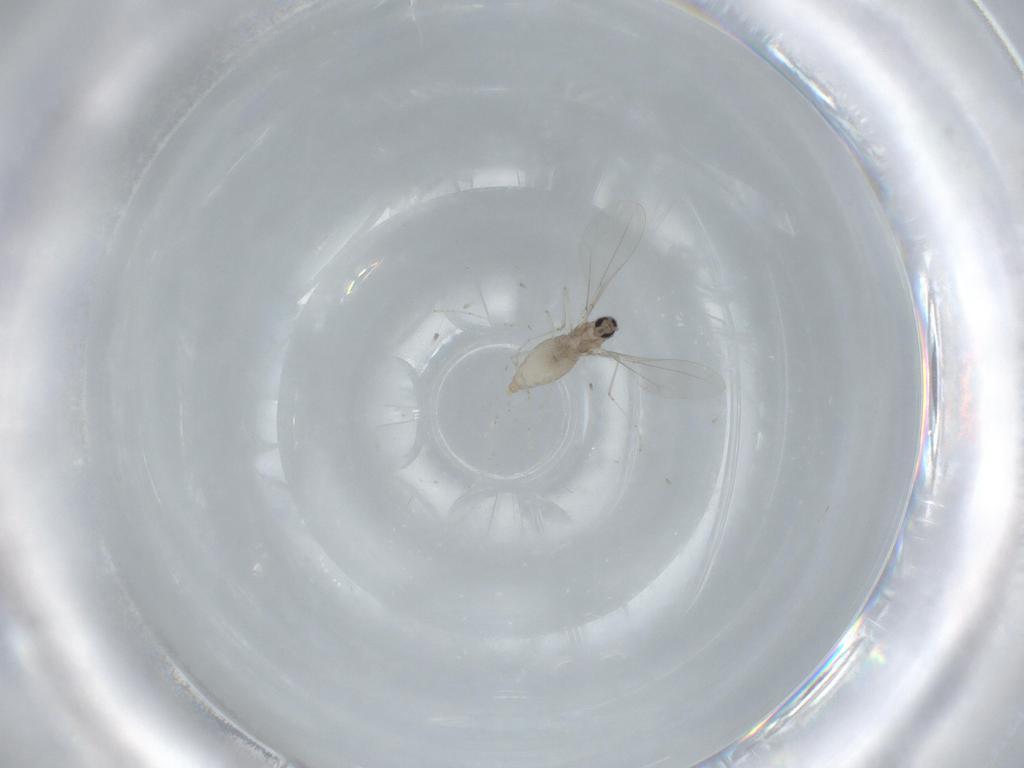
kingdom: Animalia
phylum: Arthropoda
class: Insecta
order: Diptera
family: Cecidomyiidae
